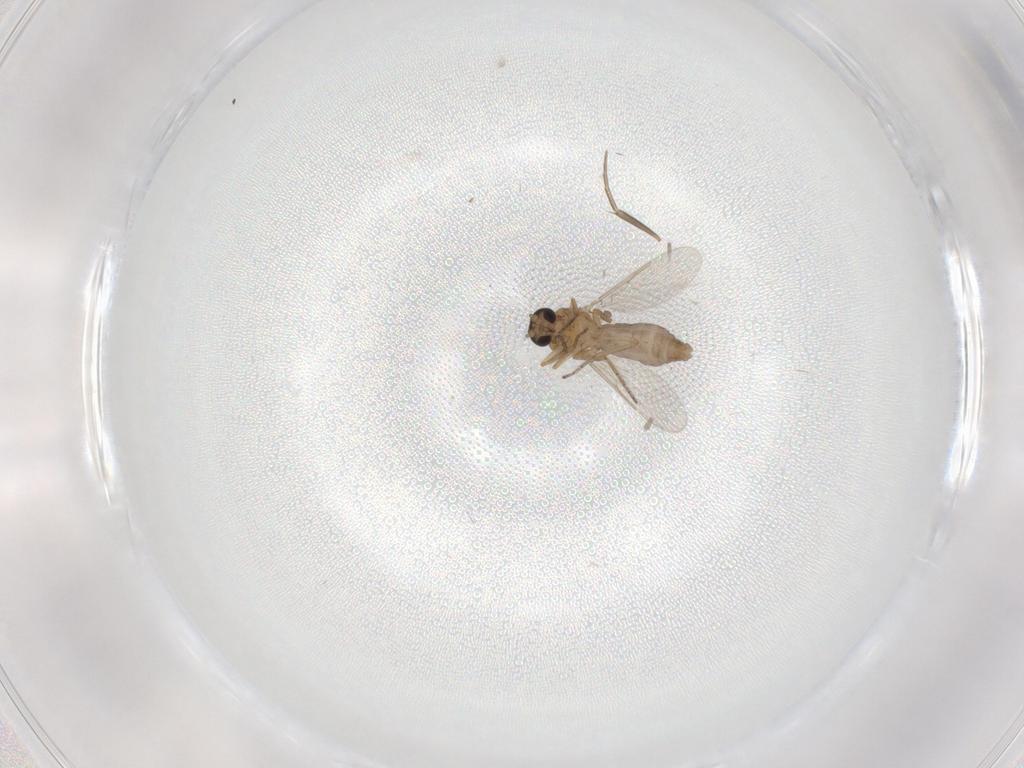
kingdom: Animalia
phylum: Arthropoda
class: Insecta
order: Diptera
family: Ceratopogonidae
